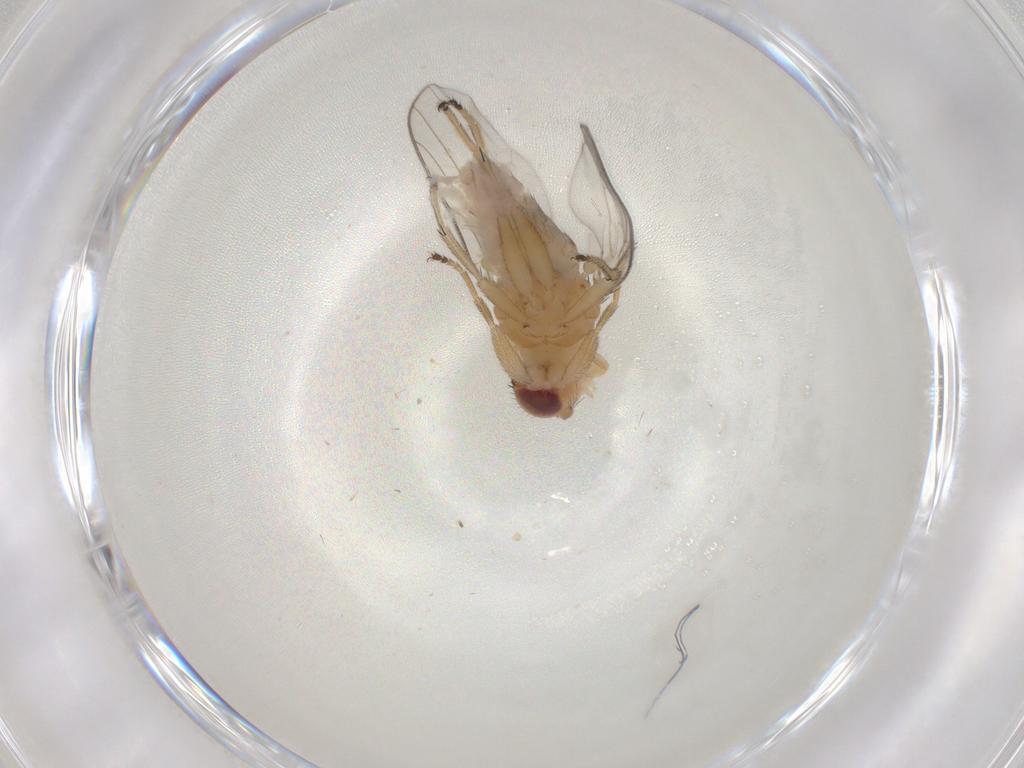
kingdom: Animalia
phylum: Arthropoda
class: Insecta
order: Diptera
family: Chloropidae
